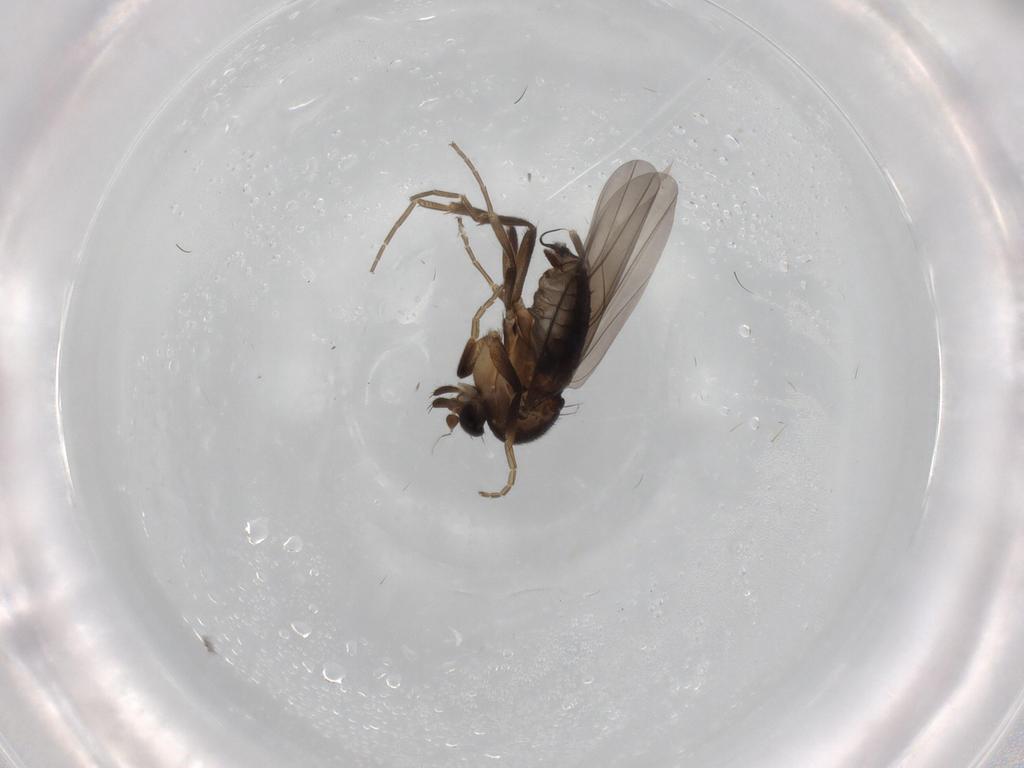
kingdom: Animalia
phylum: Arthropoda
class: Insecta
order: Diptera
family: Phoridae
